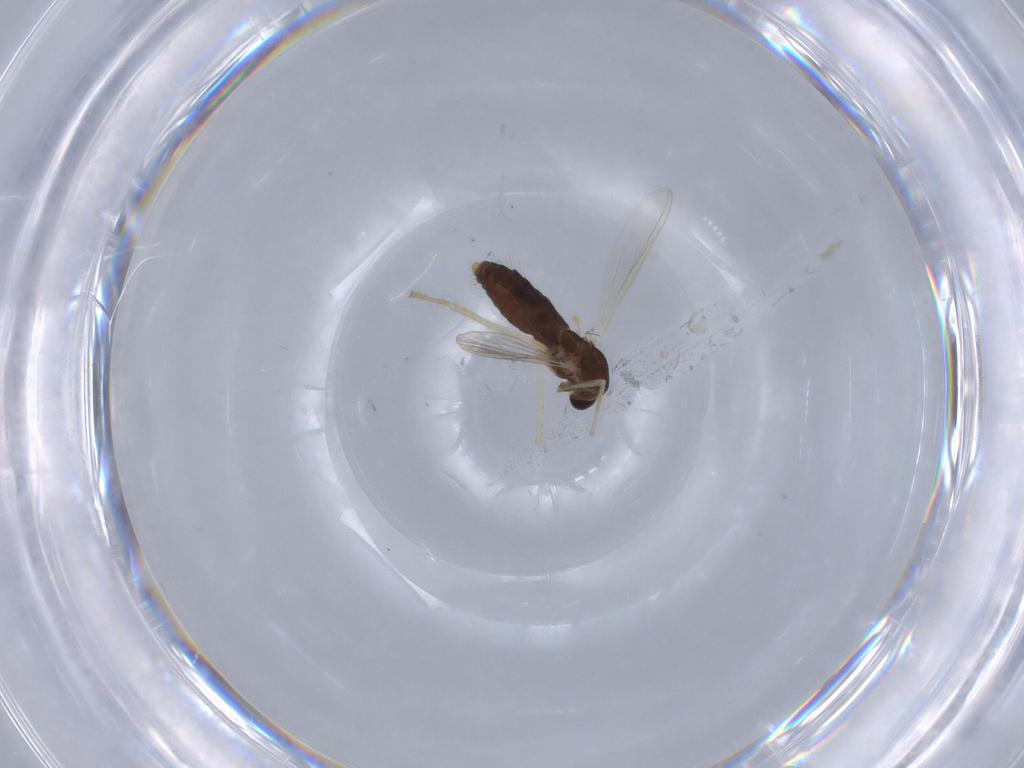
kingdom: Animalia
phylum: Arthropoda
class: Insecta
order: Diptera
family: Chironomidae
